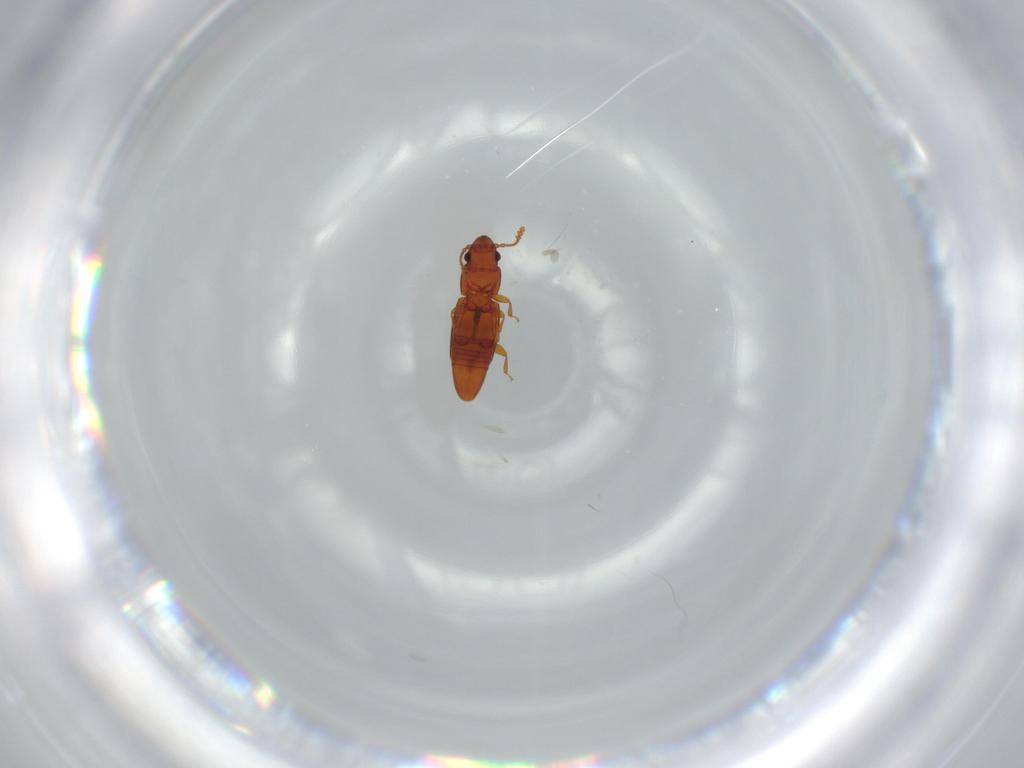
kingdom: Animalia
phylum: Arthropoda
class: Insecta
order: Coleoptera
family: Smicripidae
